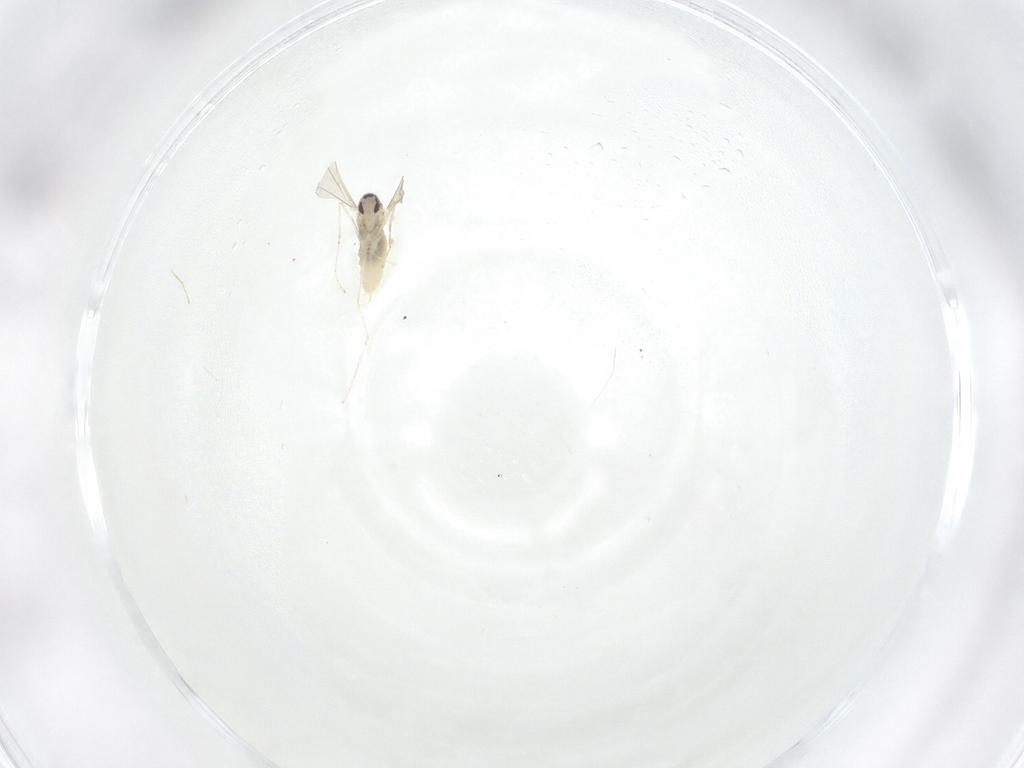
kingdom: Animalia
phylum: Arthropoda
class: Insecta
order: Diptera
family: Cecidomyiidae
